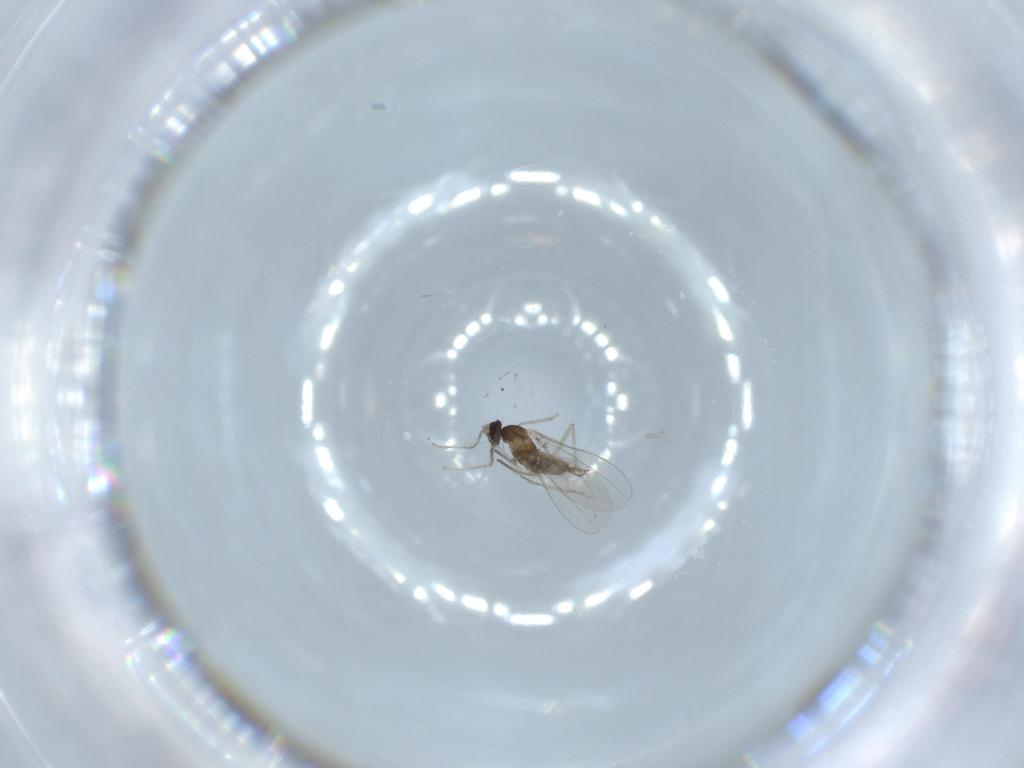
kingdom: Animalia
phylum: Arthropoda
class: Insecta
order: Diptera
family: Cecidomyiidae
